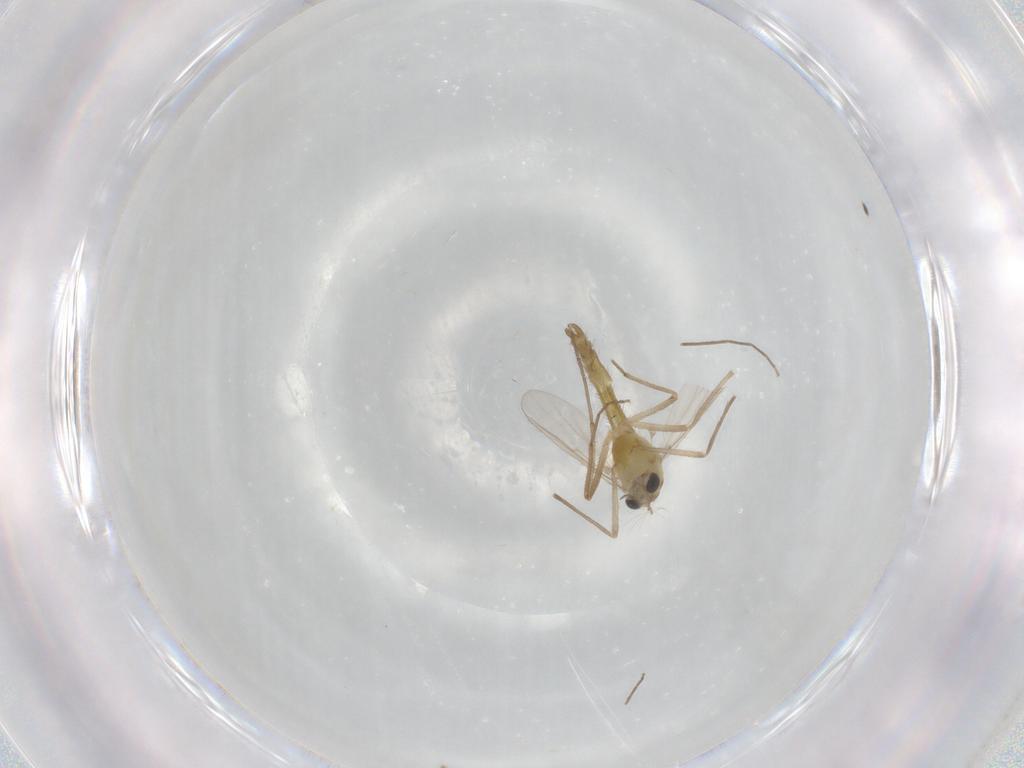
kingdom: Animalia
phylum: Arthropoda
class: Insecta
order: Diptera
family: Chironomidae
